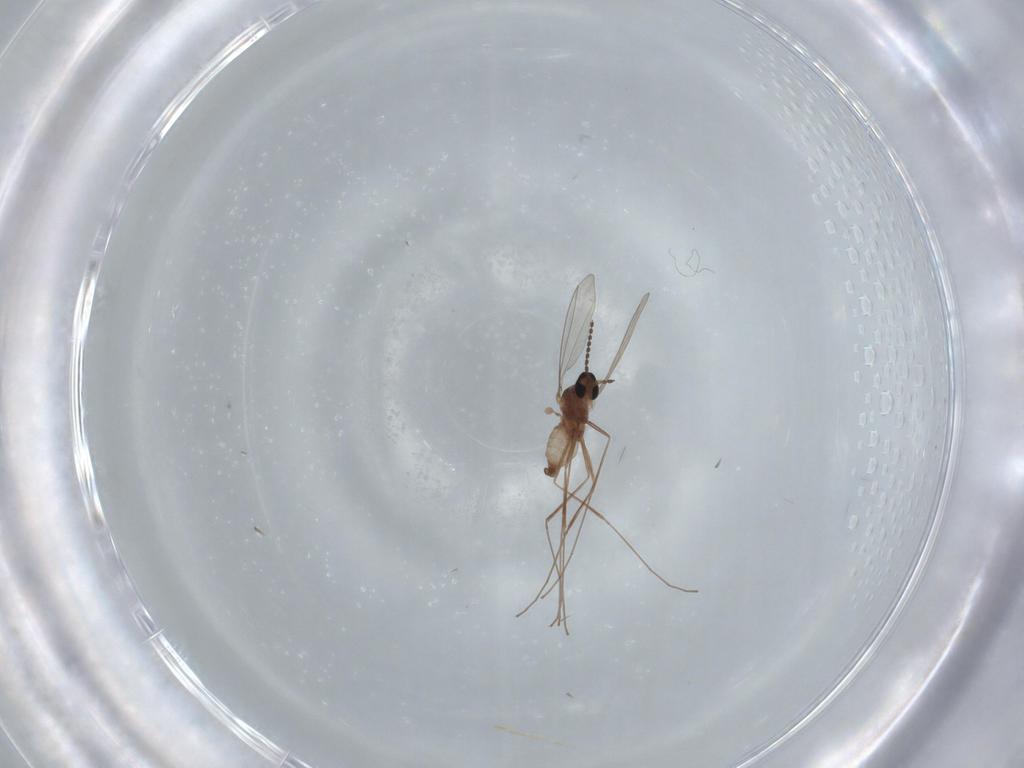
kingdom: Animalia
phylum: Arthropoda
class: Insecta
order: Diptera
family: Cecidomyiidae
